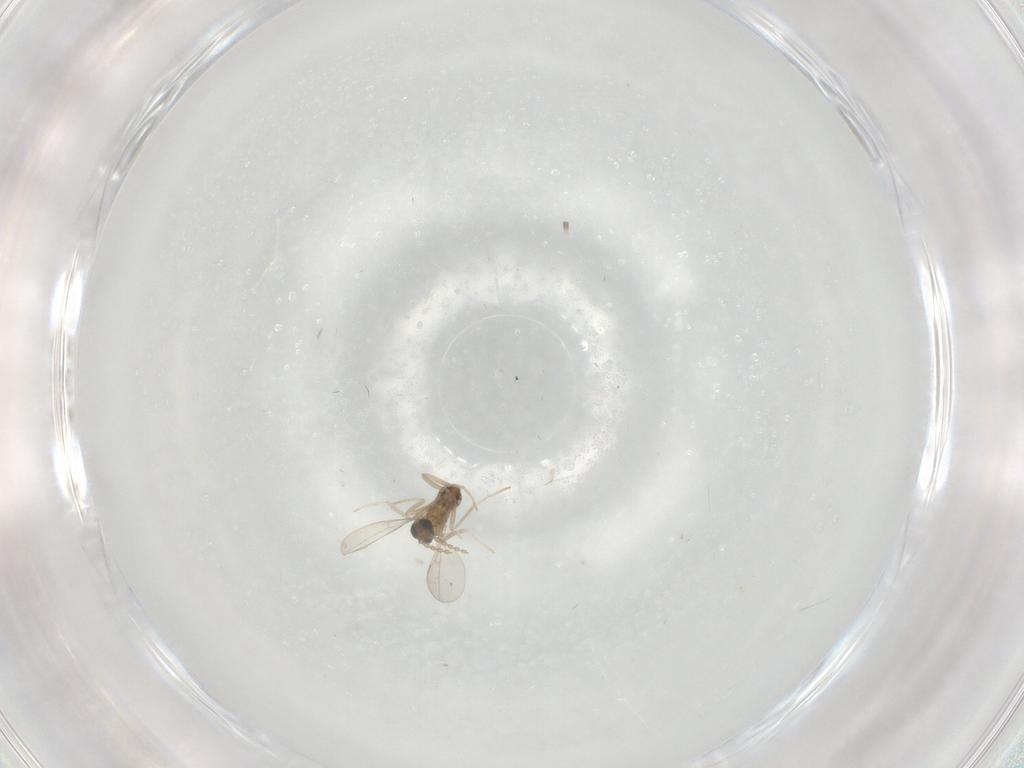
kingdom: Animalia
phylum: Arthropoda
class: Insecta
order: Diptera
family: Cecidomyiidae
